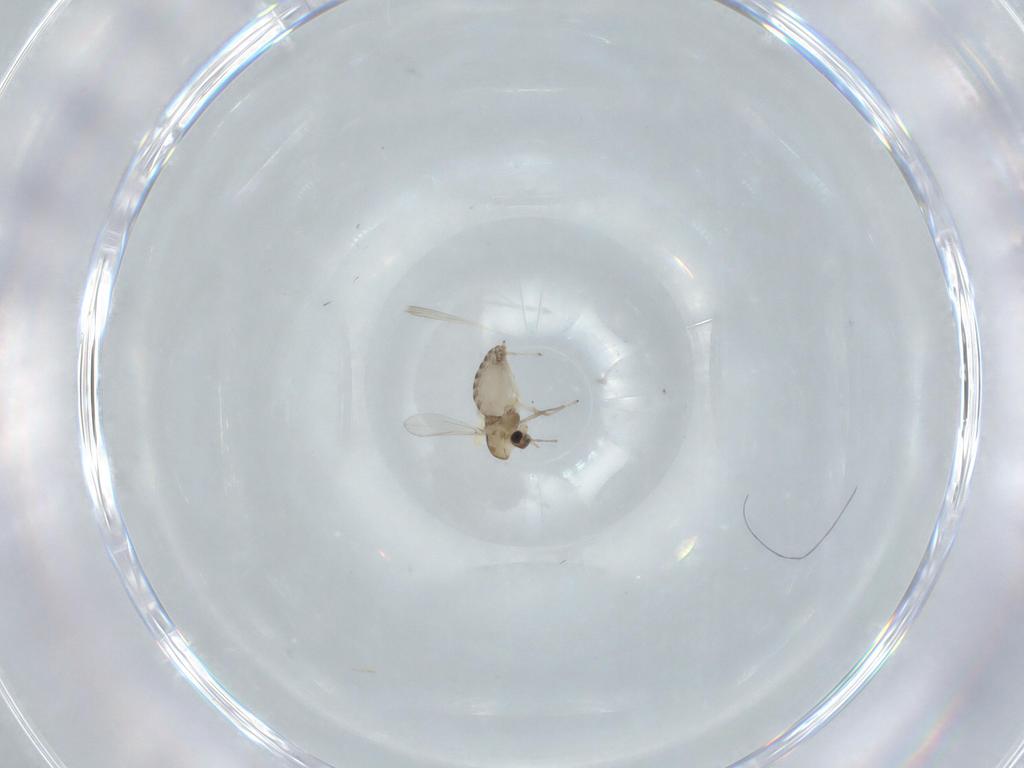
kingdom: Animalia
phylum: Arthropoda
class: Insecta
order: Diptera
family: Chironomidae
